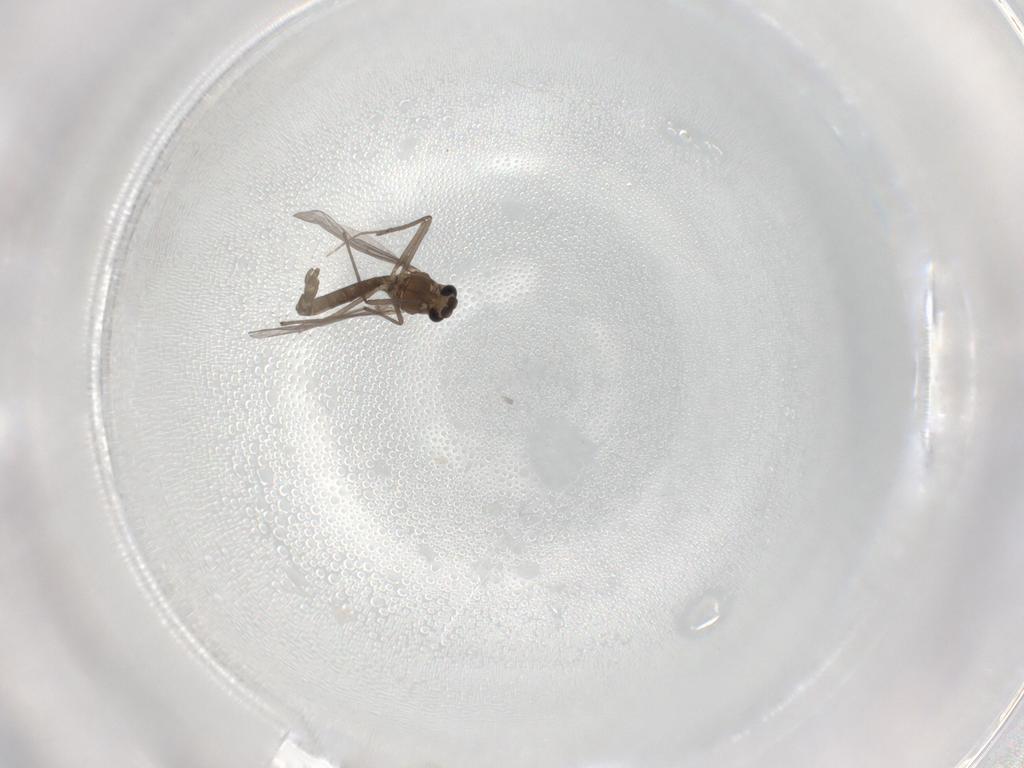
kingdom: Animalia
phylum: Arthropoda
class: Insecta
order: Diptera
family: Chironomidae
